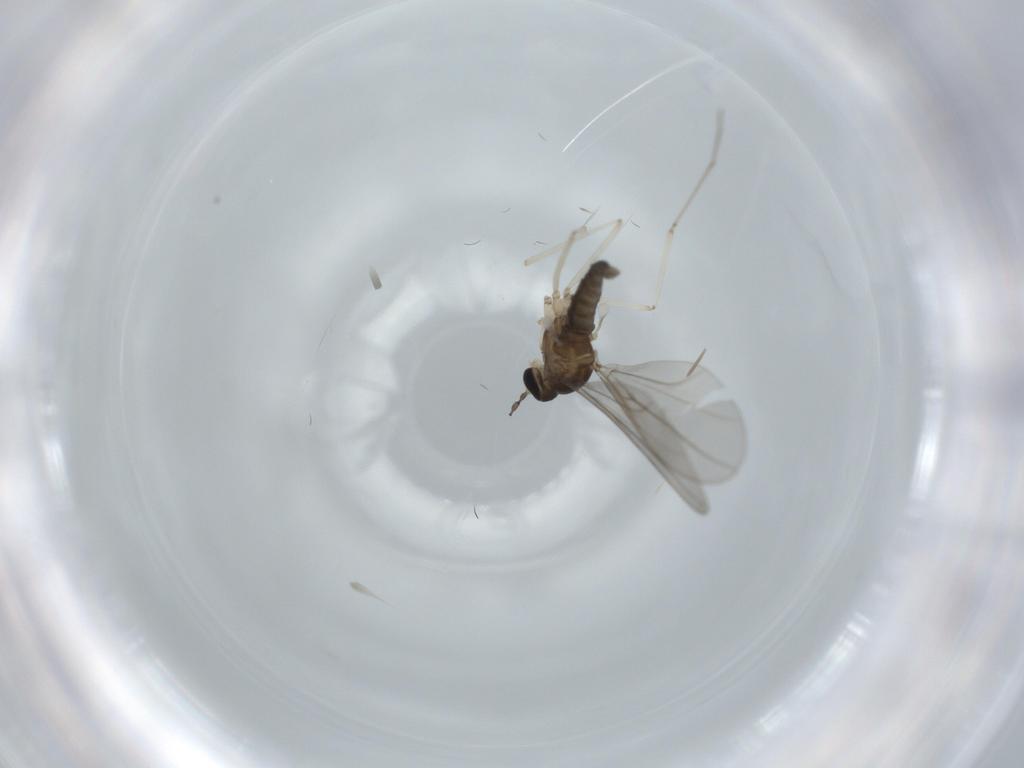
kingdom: Animalia
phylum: Arthropoda
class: Insecta
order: Diptera
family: Cecidomyiidae
